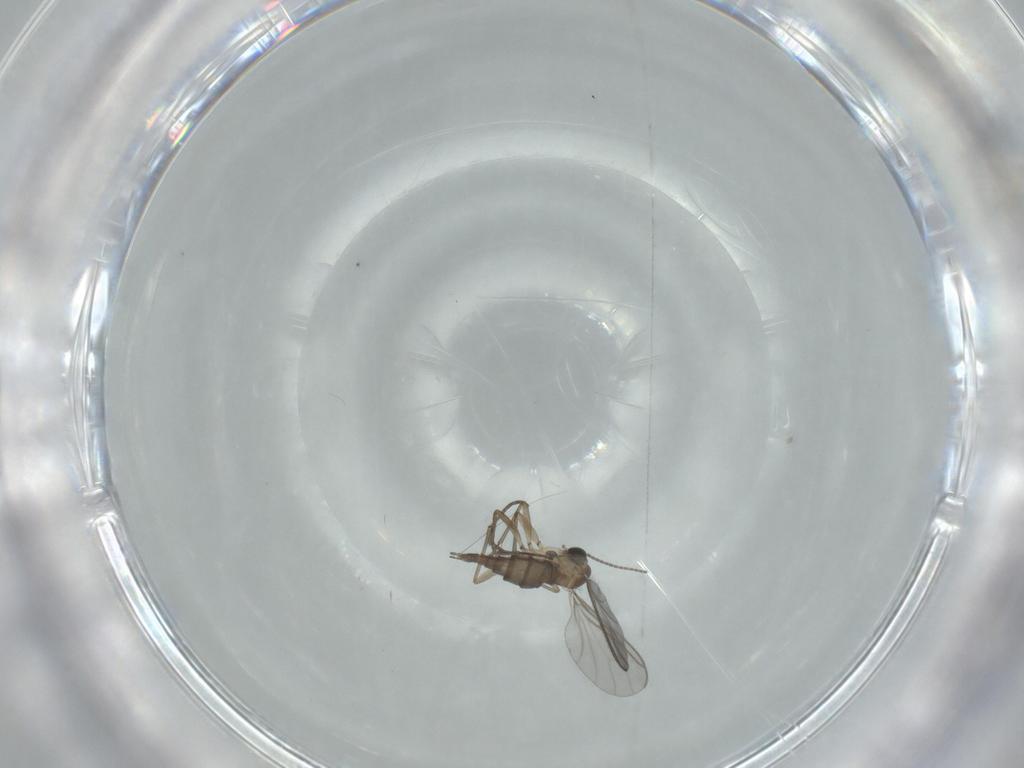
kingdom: Animalia
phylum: Arthropoda
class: Insecta
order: Diptera
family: Sciaridae
